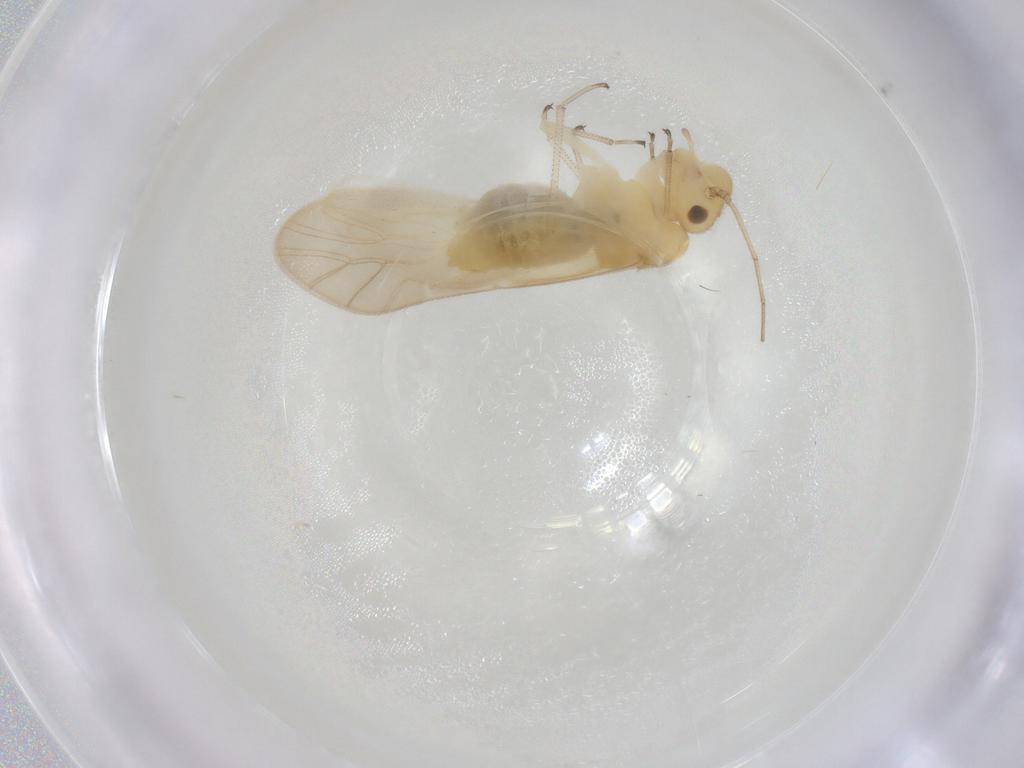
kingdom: Animalia
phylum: Arthropoda
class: Insecta
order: Psocodea
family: Caeciliusidae
